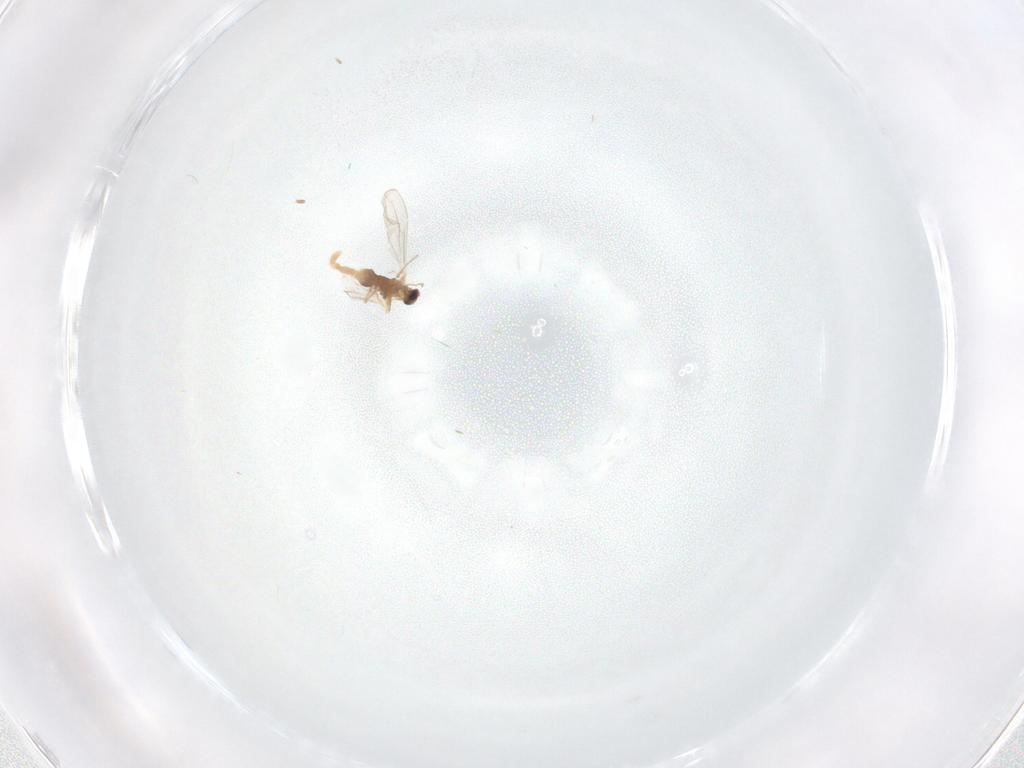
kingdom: Animalia
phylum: Arthropoda
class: Insecta
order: Diptera
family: Cecidomyiidae
